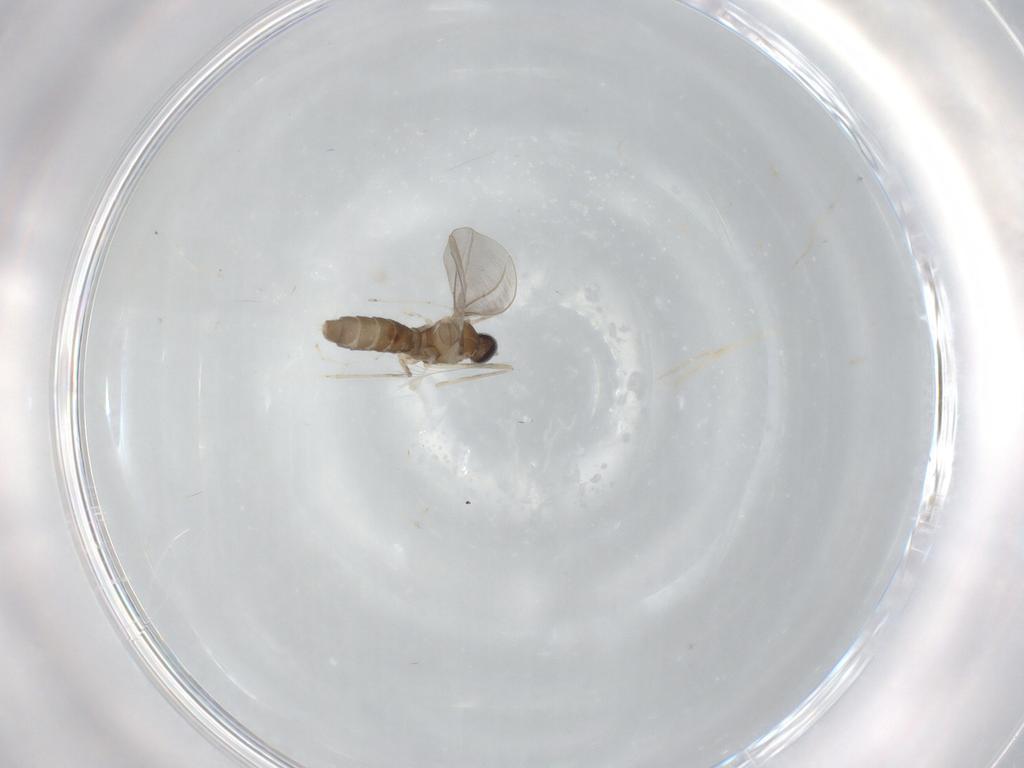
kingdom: Animalia
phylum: Arthropoda
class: Insecta
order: Diptera
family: Cecidomyiidae
